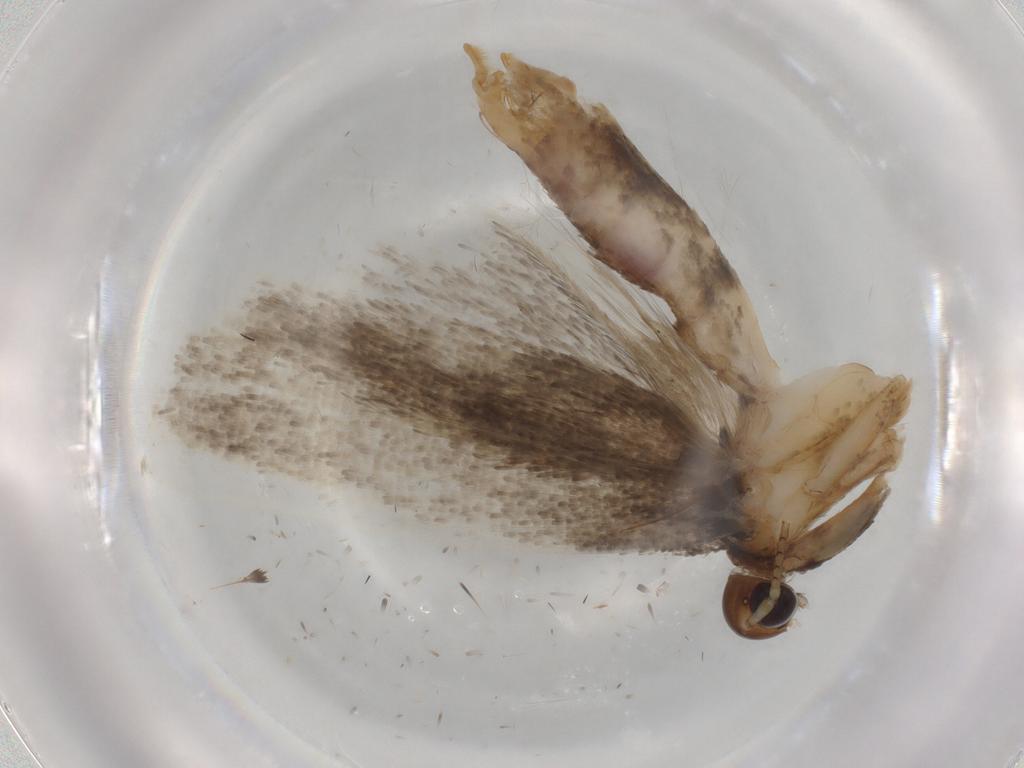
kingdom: Animalia
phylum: Arthropoda
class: Insecta
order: Lepidoptera
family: Gelechiidae
